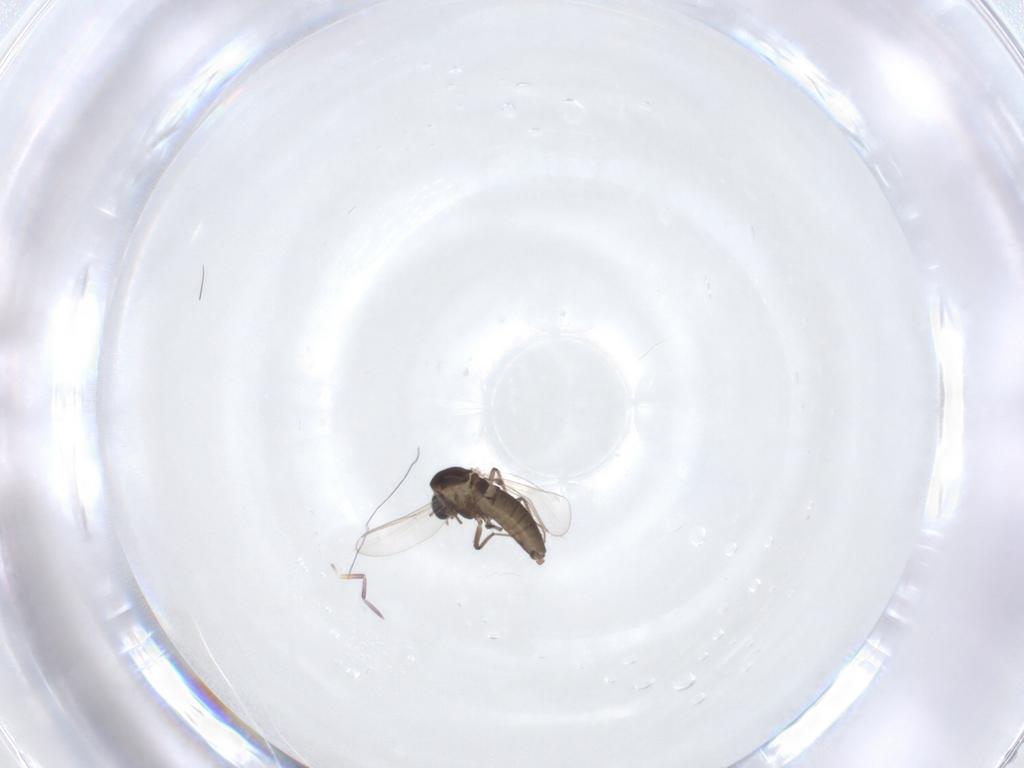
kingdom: Animalia
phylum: Arthropoda
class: Insecta
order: Diptera
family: Chironomidae
